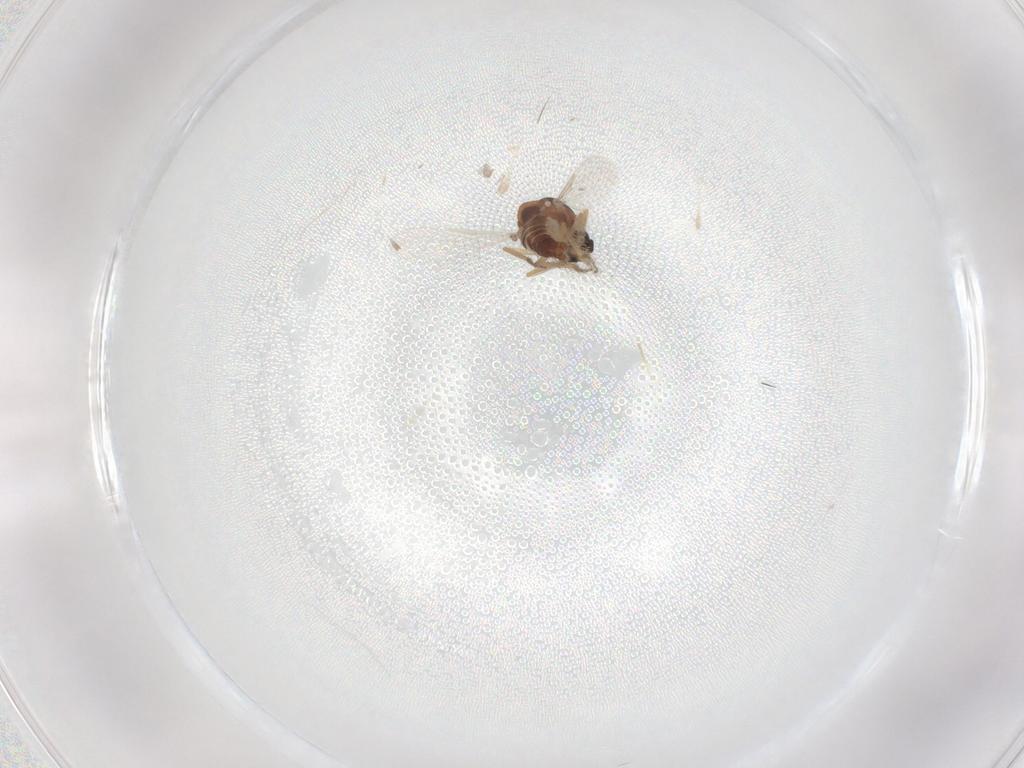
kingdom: Animalia
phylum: Arthropoda
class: Insecta
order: Diptera
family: Ceratopogonidae
